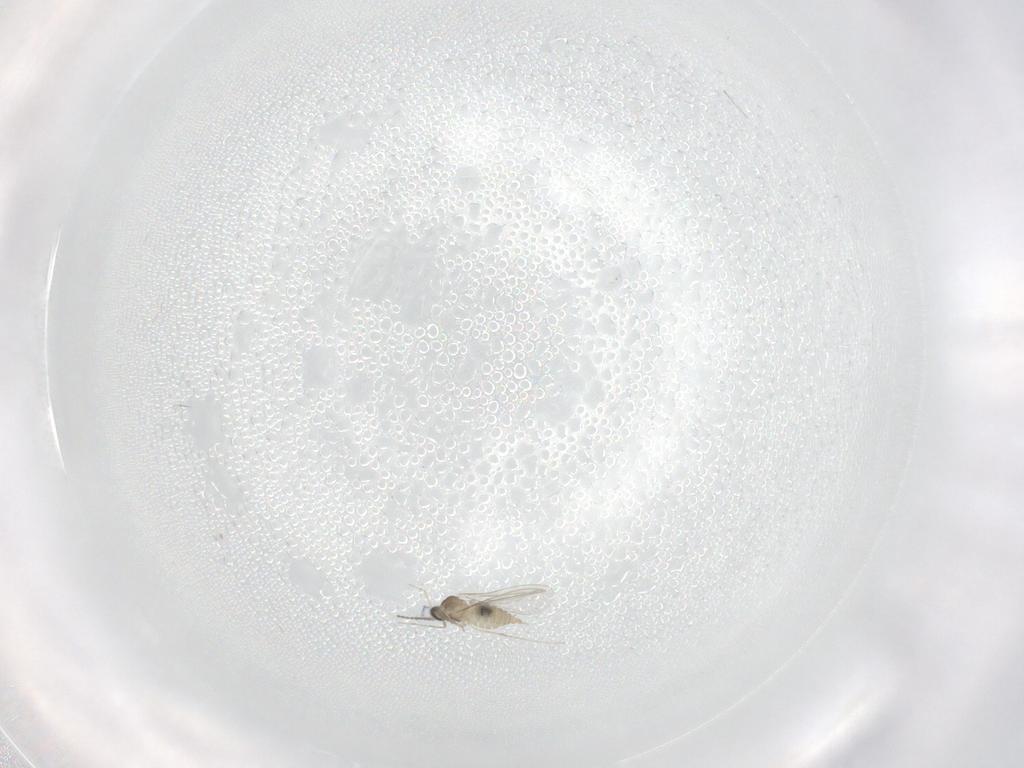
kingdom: Animalia
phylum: Arthropoda
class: Insecta
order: Diptera
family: Cecidomyiidae
